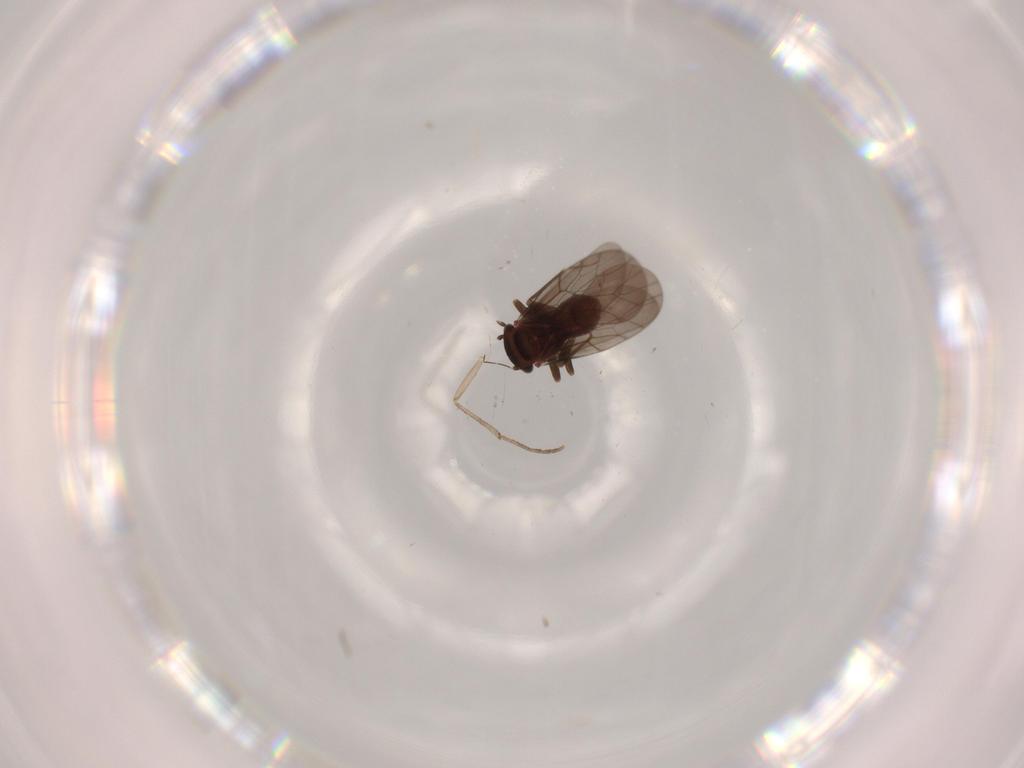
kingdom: Animalia
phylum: Arthropoda
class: Insecta
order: Psocodea
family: Ectopsocidae
